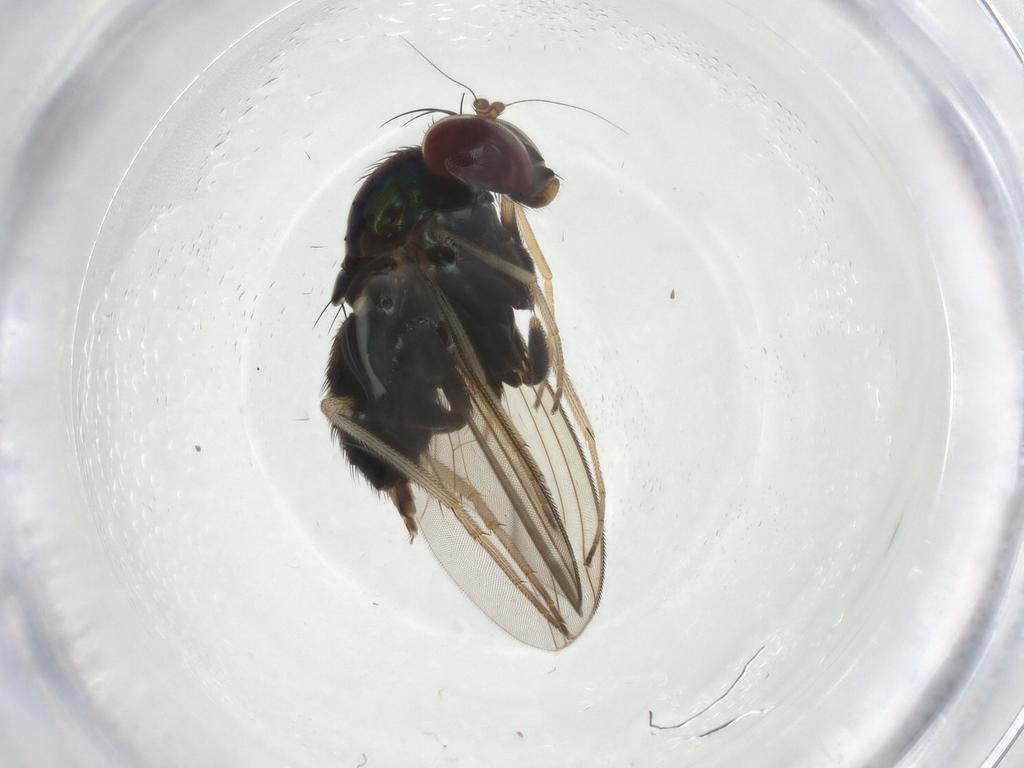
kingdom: Animalia
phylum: Arthropoda
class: Insecta
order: Diptera
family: Dolichopodidae
